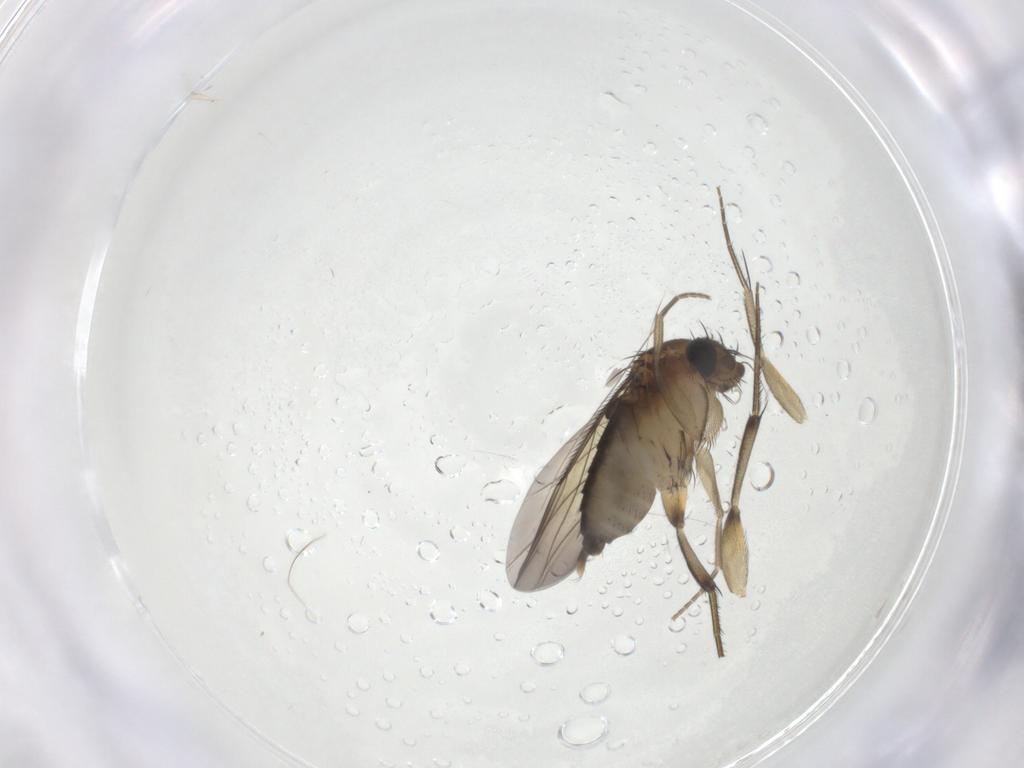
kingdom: Animalia
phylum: Arthropoda
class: Insecta
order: Diptera
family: Phoridae
